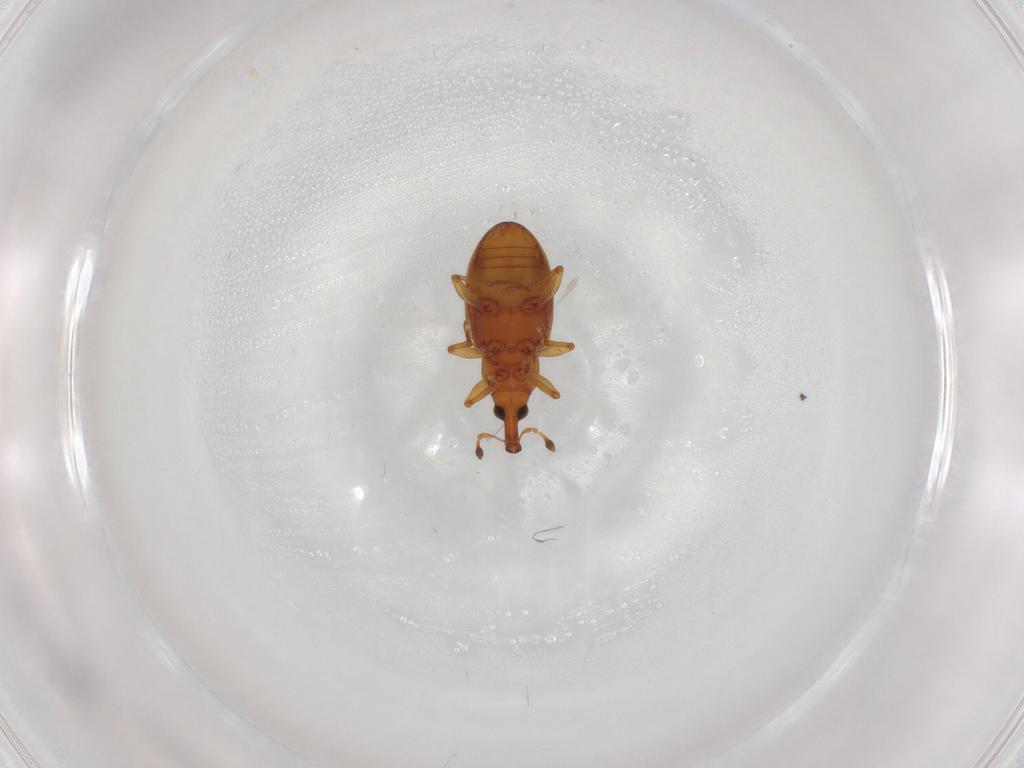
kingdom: Animalia
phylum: Arthropoda
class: Insecta
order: Coleoptera
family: Curculionidae
